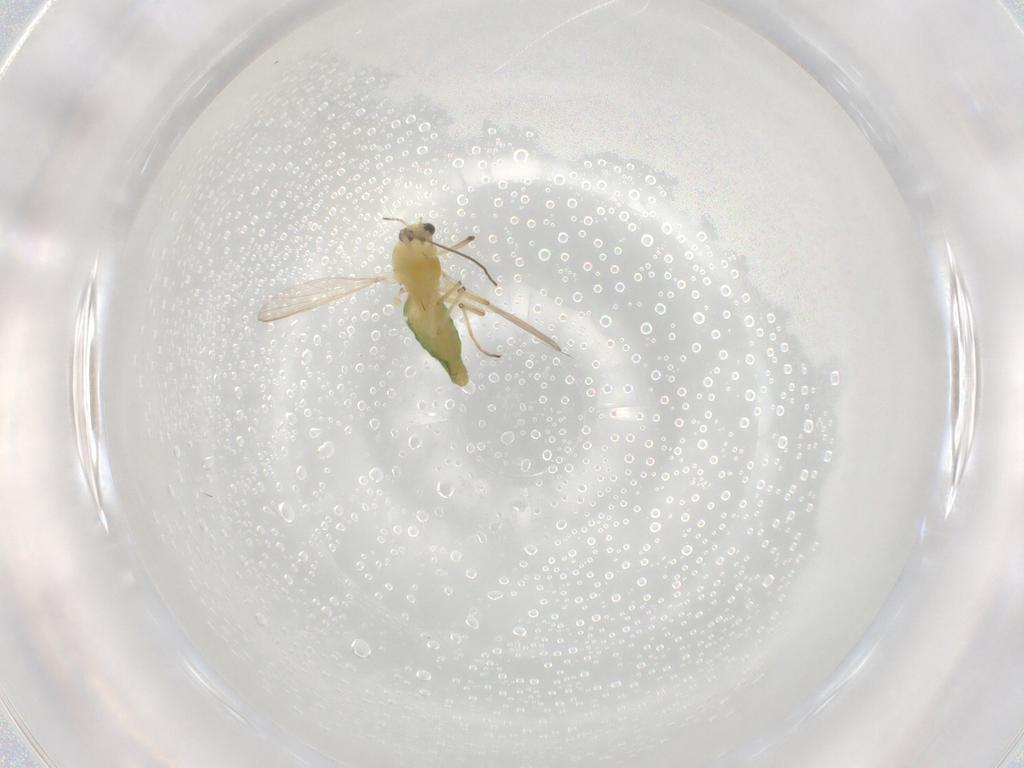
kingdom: Animalia
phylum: Arthropoda
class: Insecta
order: Diptera
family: Chironomidae
